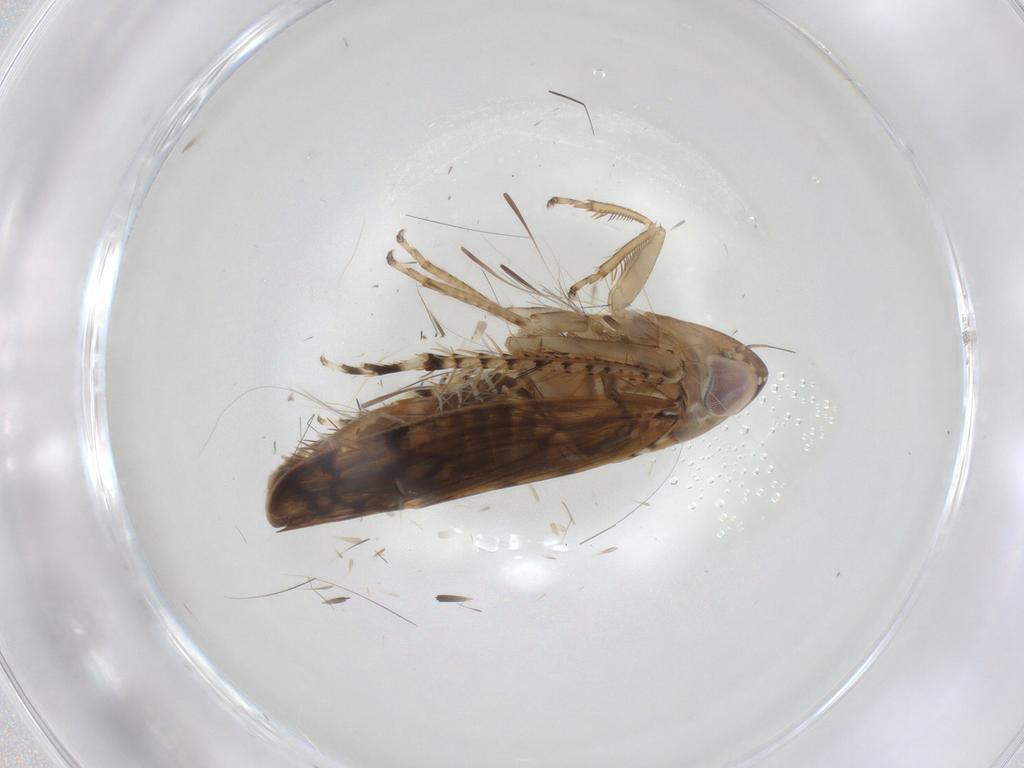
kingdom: Animalia
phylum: Arthropoda
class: Insecta
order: Hemiptera
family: Cicadellidae
